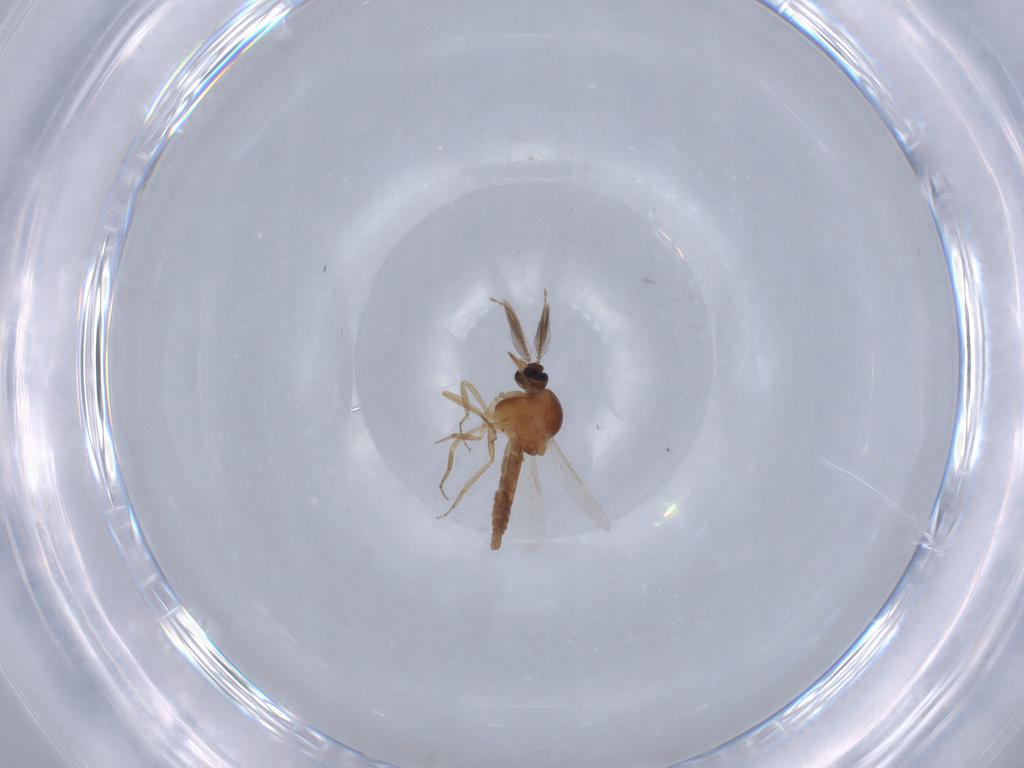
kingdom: Animalia
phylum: Arthropoda
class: Insecta
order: Diptera
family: Ceratopogonidae
